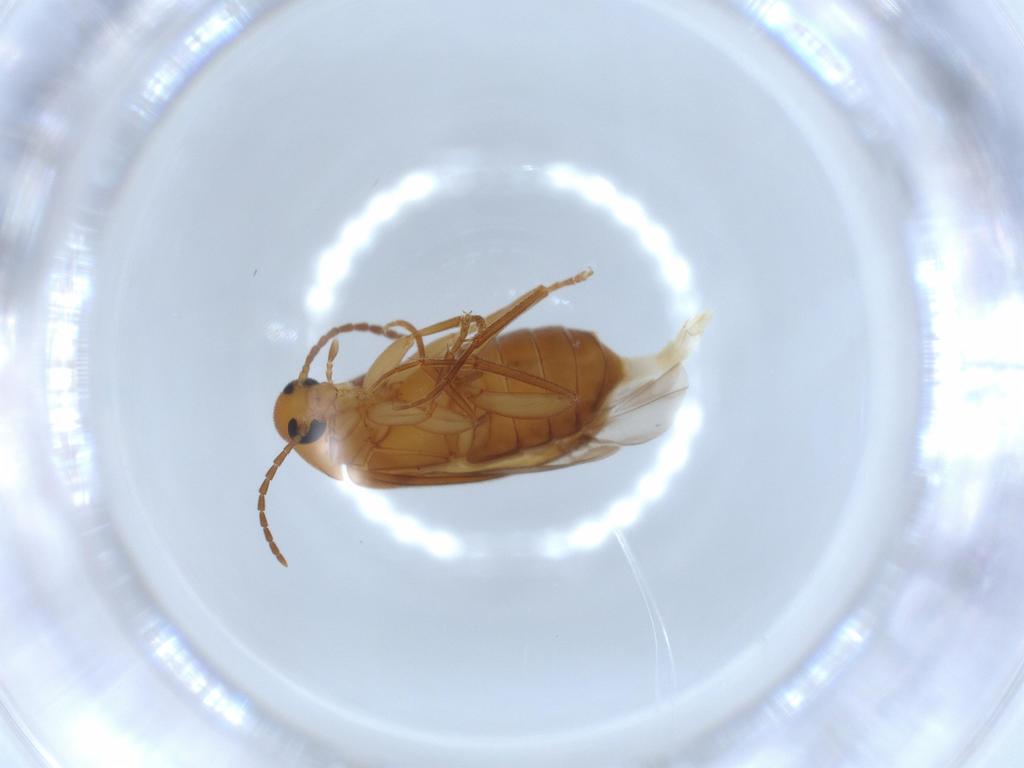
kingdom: Animalia
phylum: Arthropoda
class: Insecta
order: Coleoptera
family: Scraptiidae
